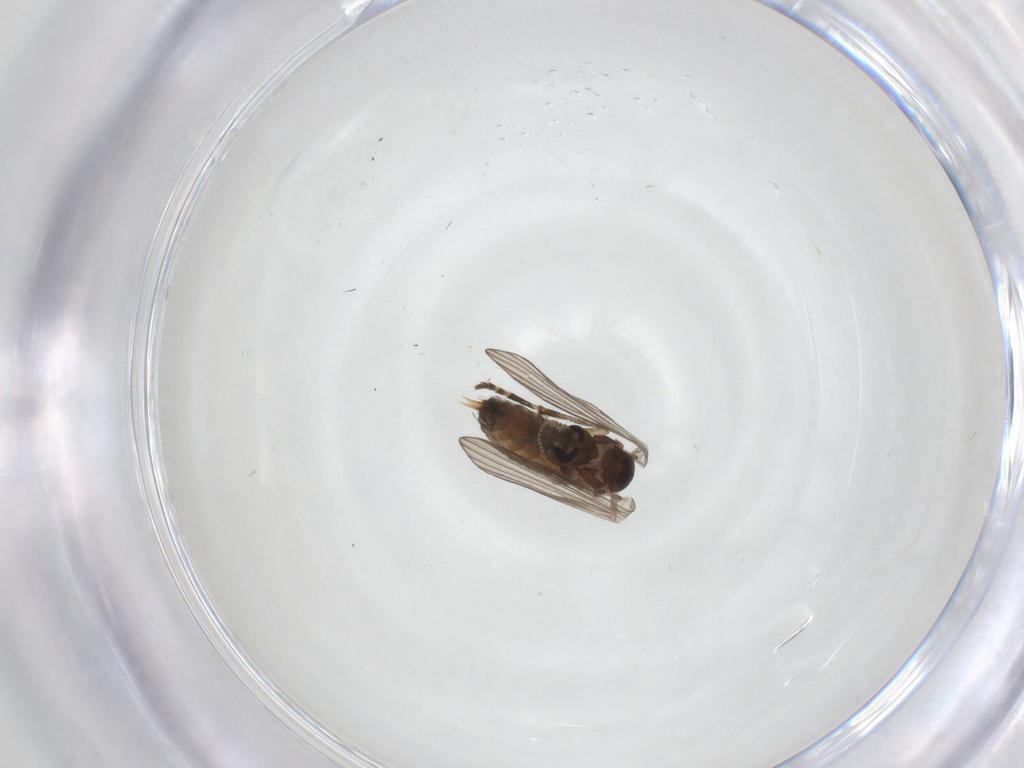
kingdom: Animalia
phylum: Arthropoda
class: Insecta
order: Diptera
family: Psychodidae
